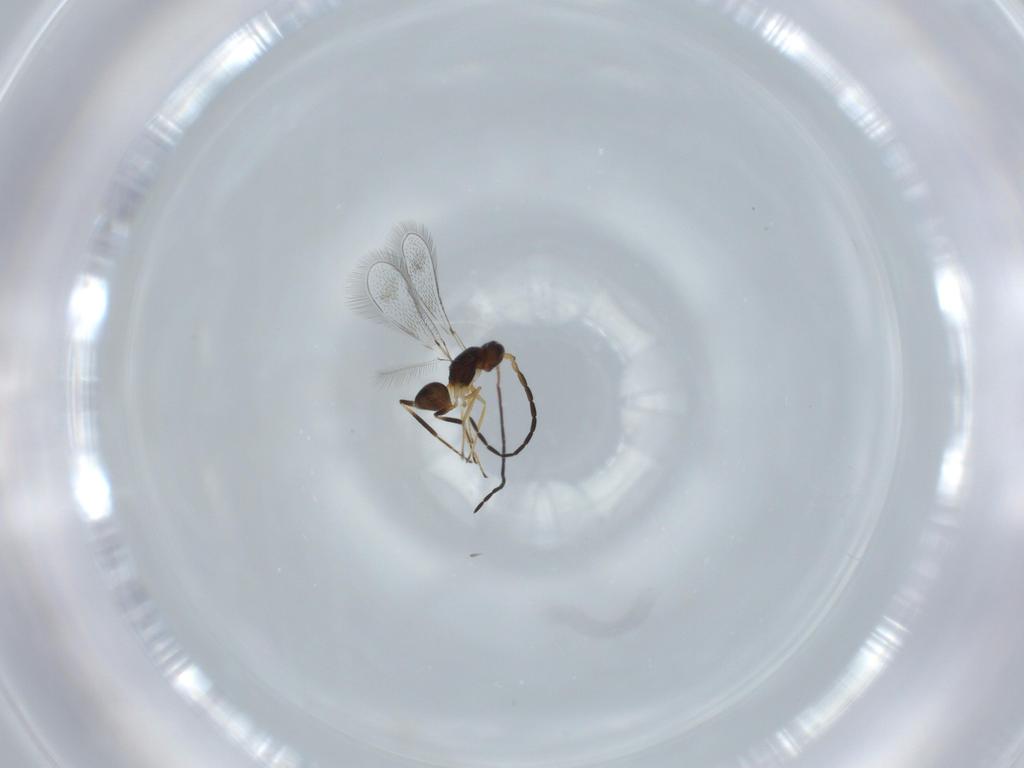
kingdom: Animalia
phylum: Arthropoda
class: Insecta
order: Hymenoptera
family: Mymaridae
